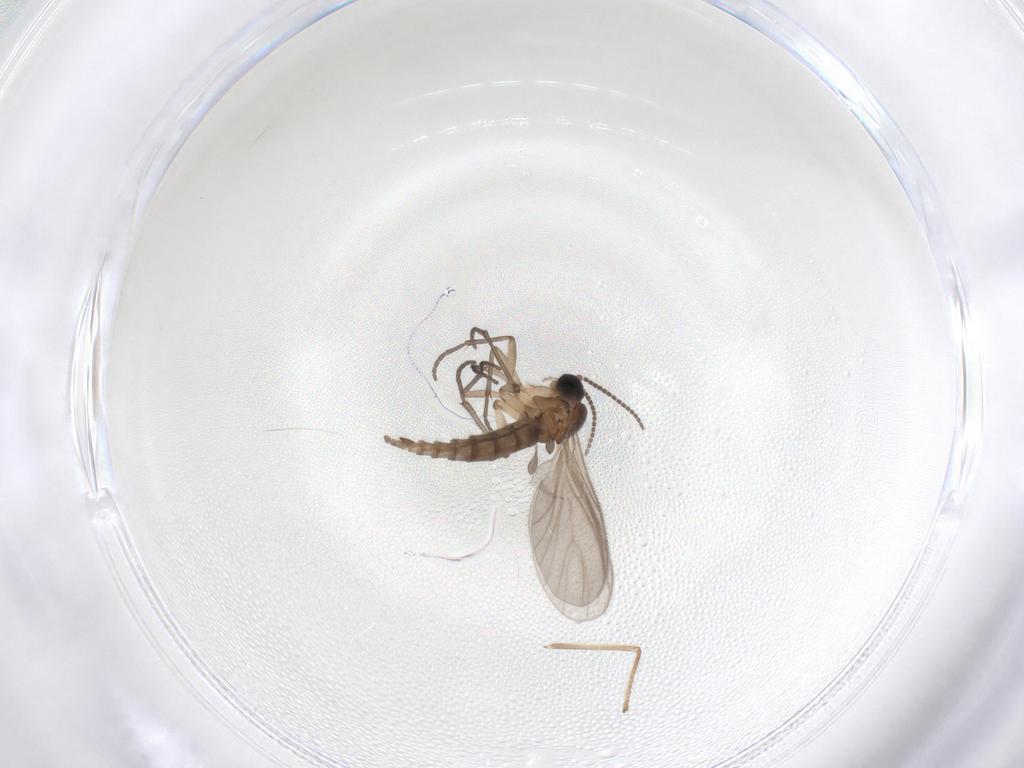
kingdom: Animalia
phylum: Arthropoda
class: Insecta
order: Diptera
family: Sciaridae
